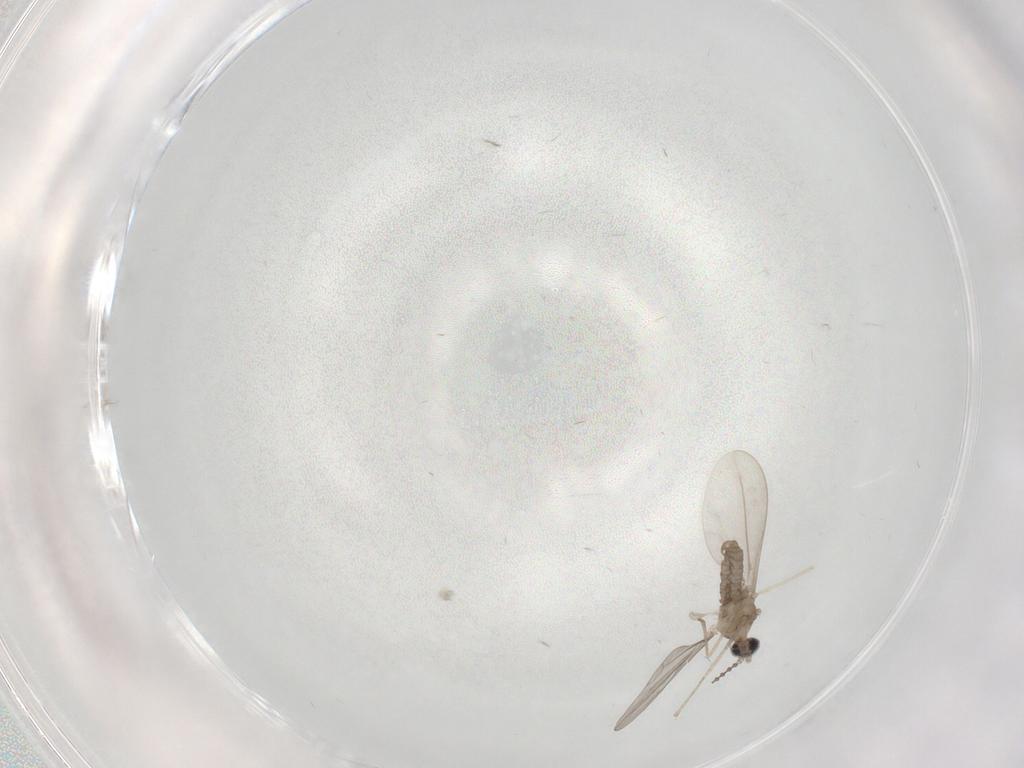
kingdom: Animalia
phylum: Arthropoda
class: Insecta
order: Diptera
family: Cecidomyiidae
